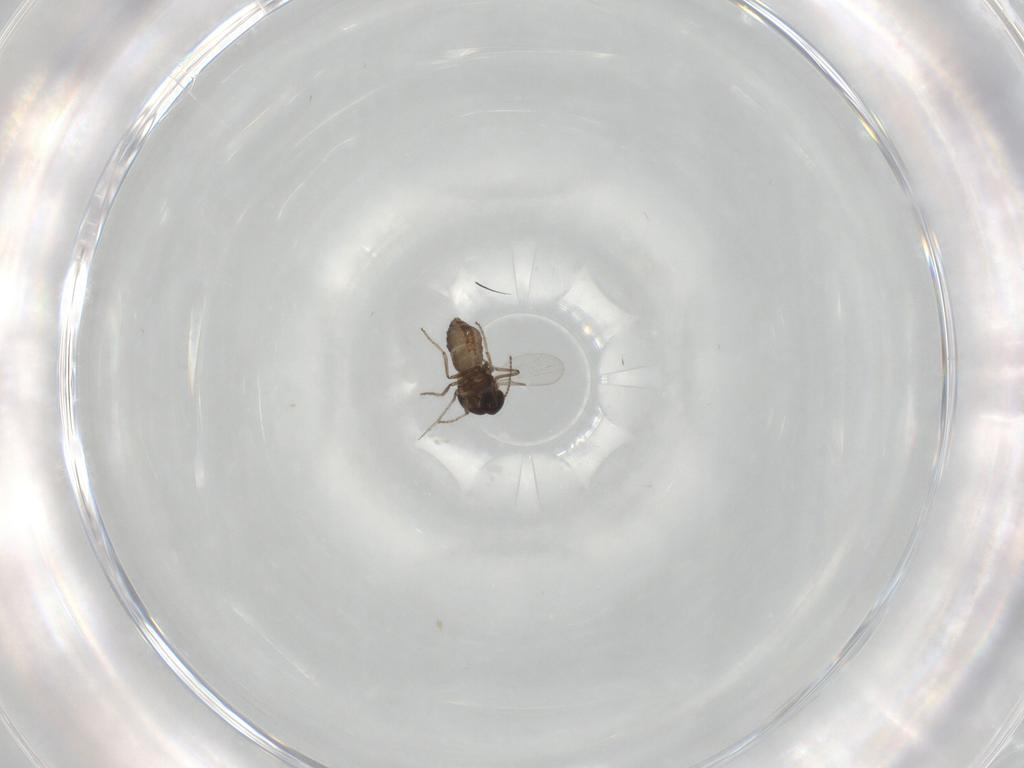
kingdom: Animalia
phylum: Arthropoda
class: Insecta
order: Diptera
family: Ceratopogonidae
